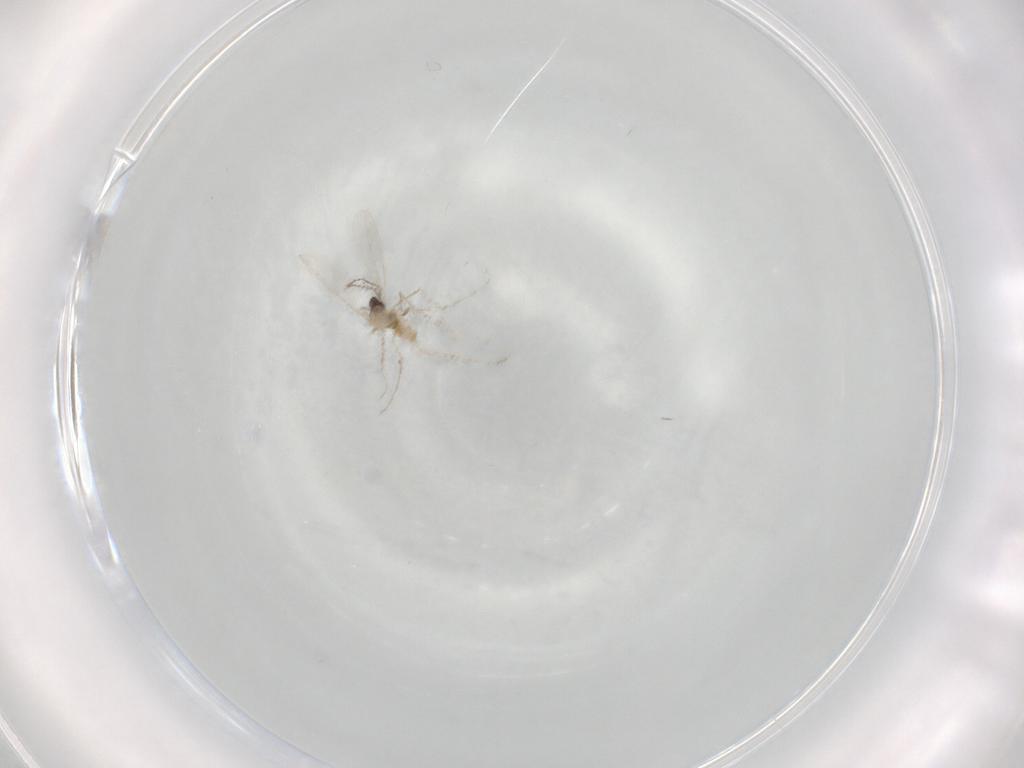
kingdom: Animalia
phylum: Arthropoda
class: Insecta
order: Diptera
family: Cecidomyiidae
